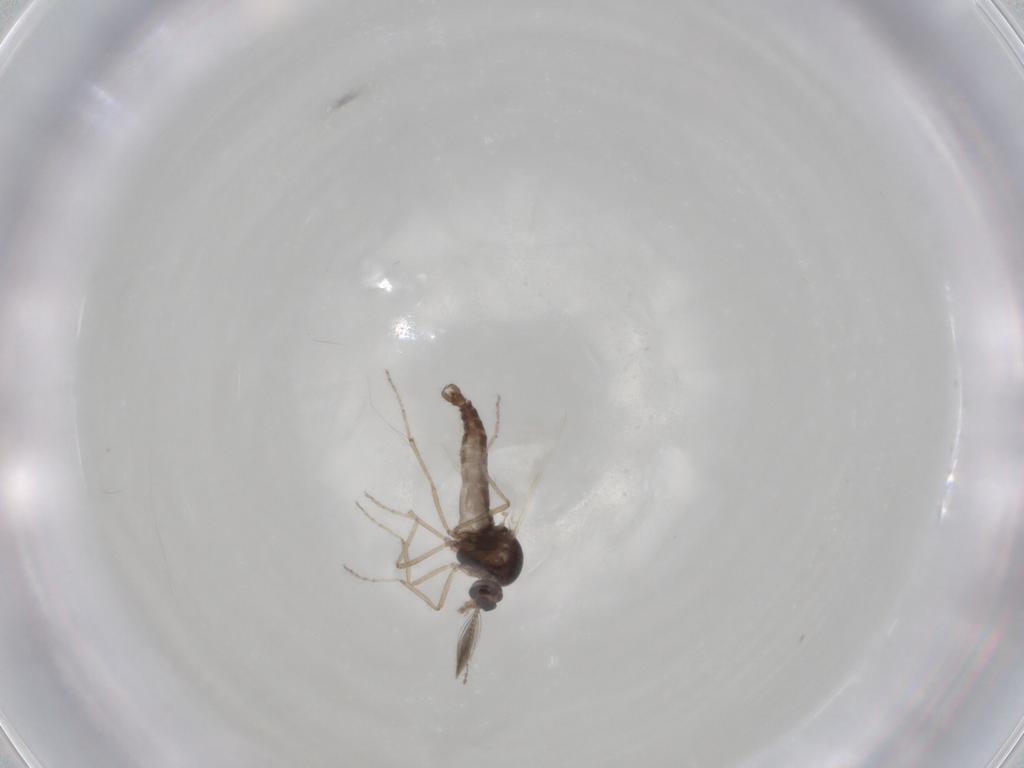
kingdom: Animalia
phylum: Arthropoda
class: Insecta
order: Diptera
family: Ceratopogonidae
